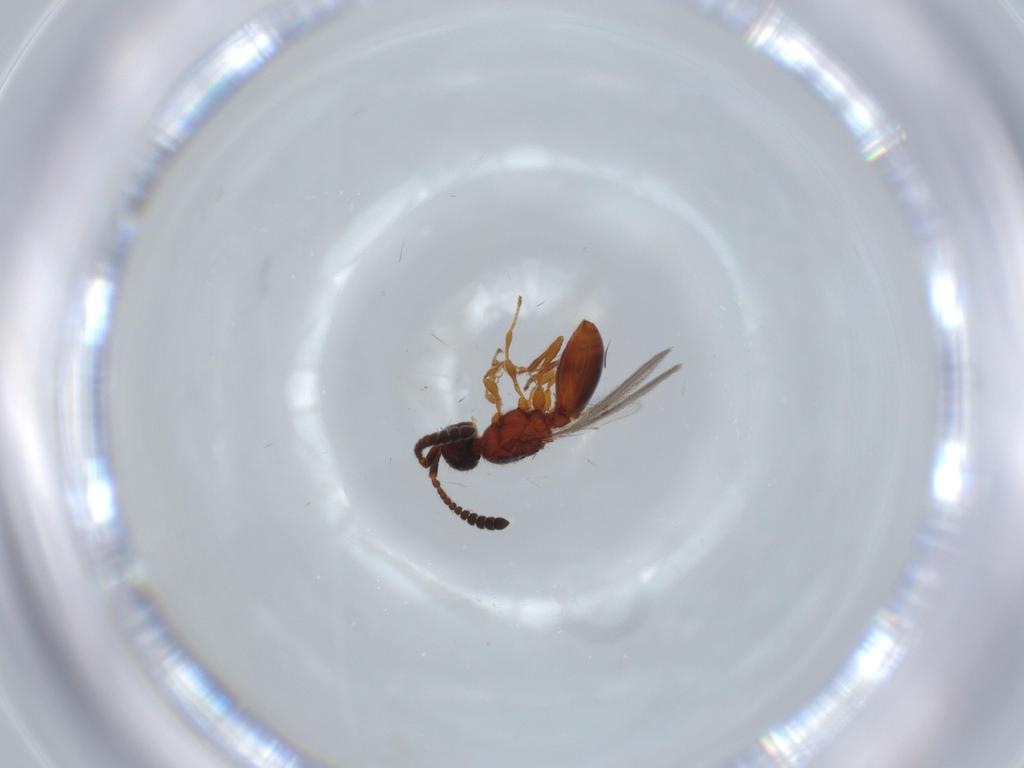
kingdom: Animalia
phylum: Arthropoda
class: Insecta
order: Hymenoptera
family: Diapriidae
